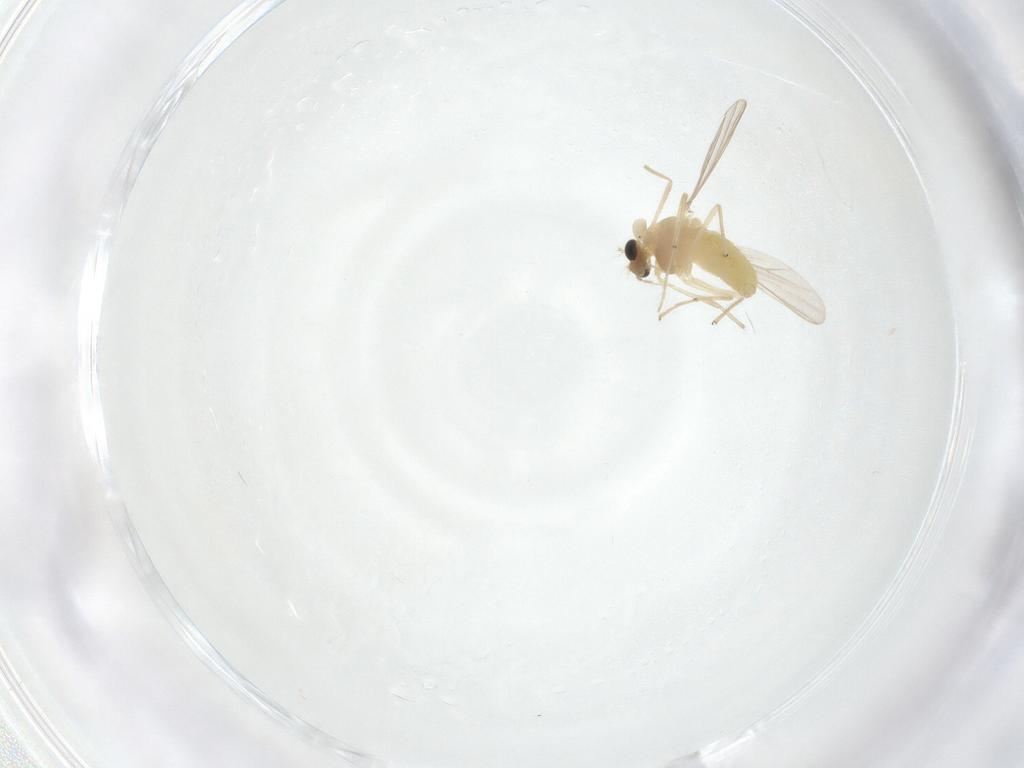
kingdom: Animalia
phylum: Arthropoda
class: Insecta
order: Diptera
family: Chironomidae
